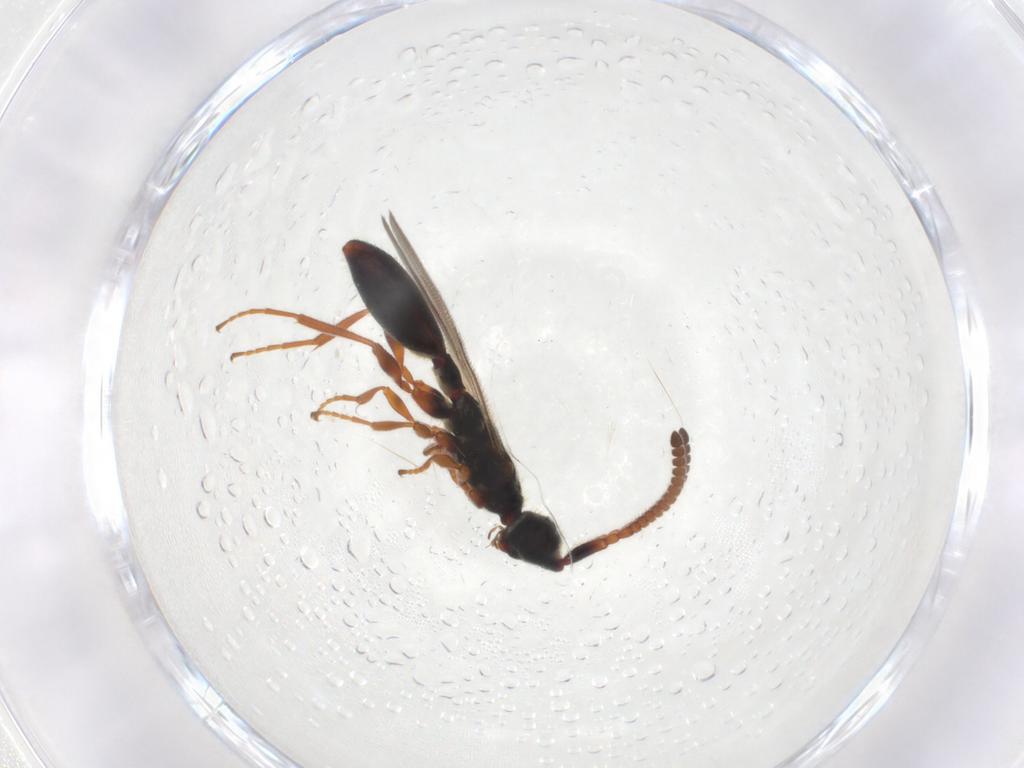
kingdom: Animalia
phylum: Arthropoda
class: Insecta
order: Hymenoptera
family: Diapriidae
